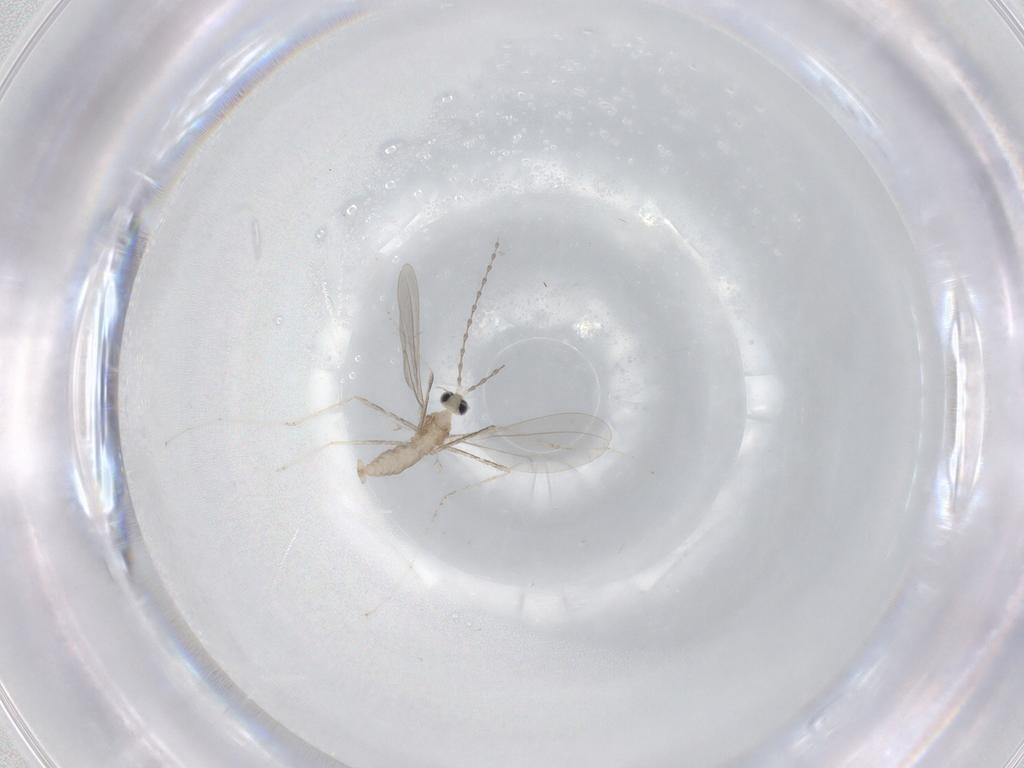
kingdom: Animalia
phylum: Arthropoda
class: Insecta
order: Diptera
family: Cecidomyiidae
